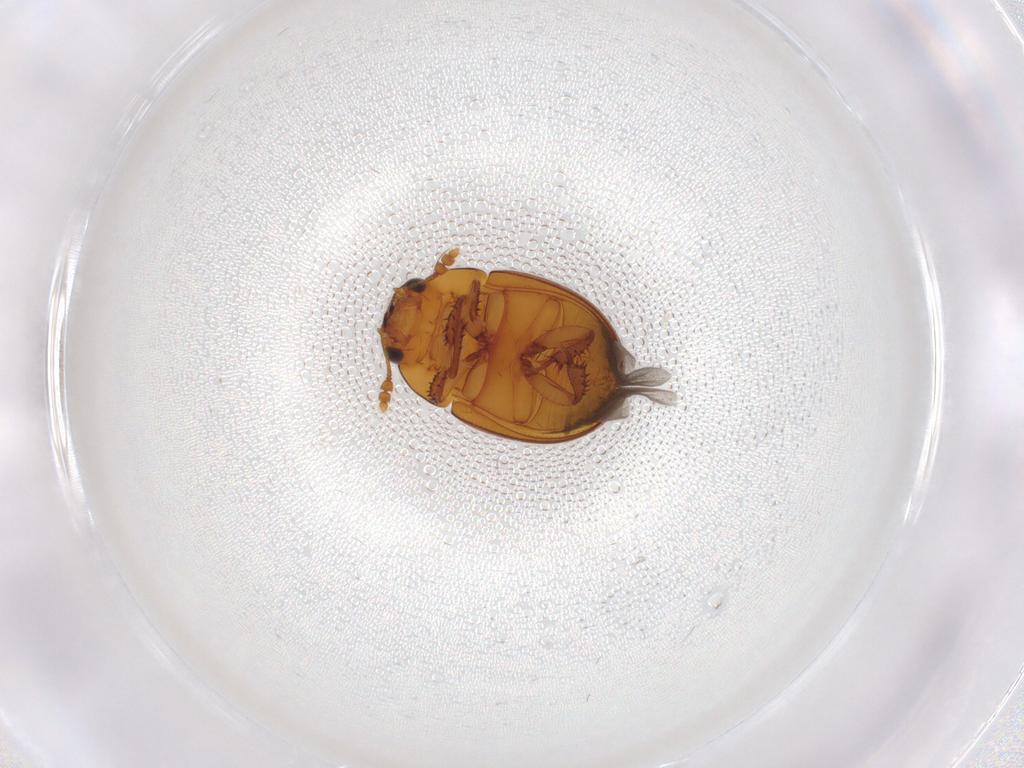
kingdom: Animalia
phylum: Arthropoda
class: Insecta
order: Coleoptera
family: Anthribidae
